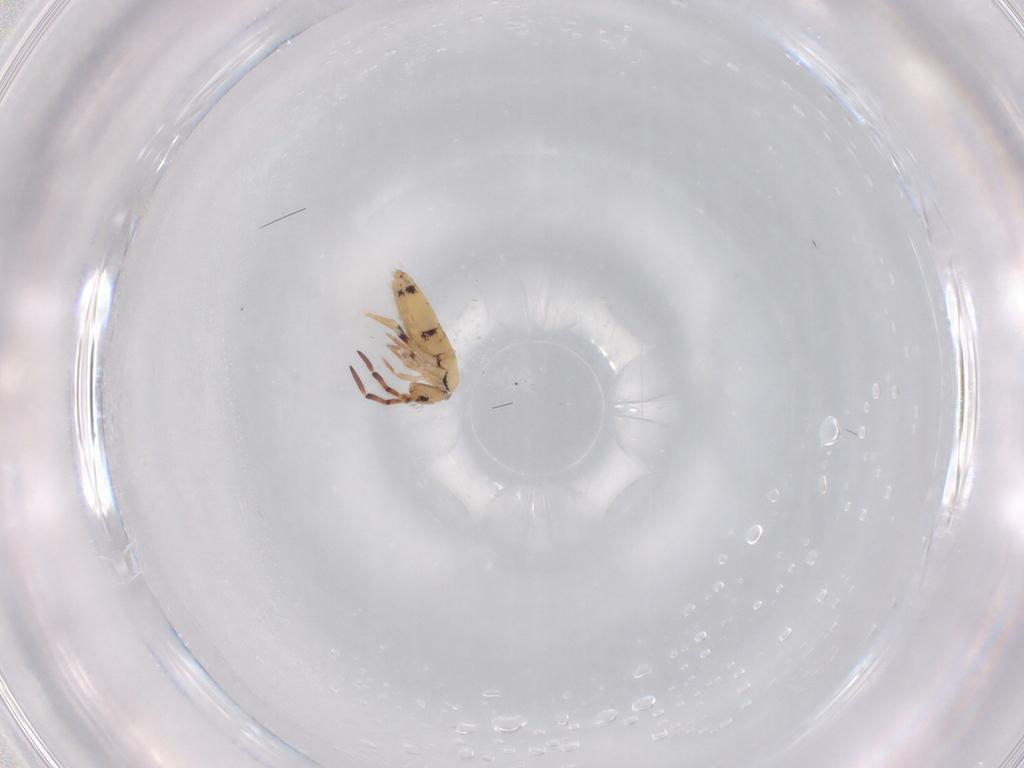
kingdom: Animalia
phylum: Arthropoda
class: Collembola
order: Entomobryomorpha
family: Entomobryidae
